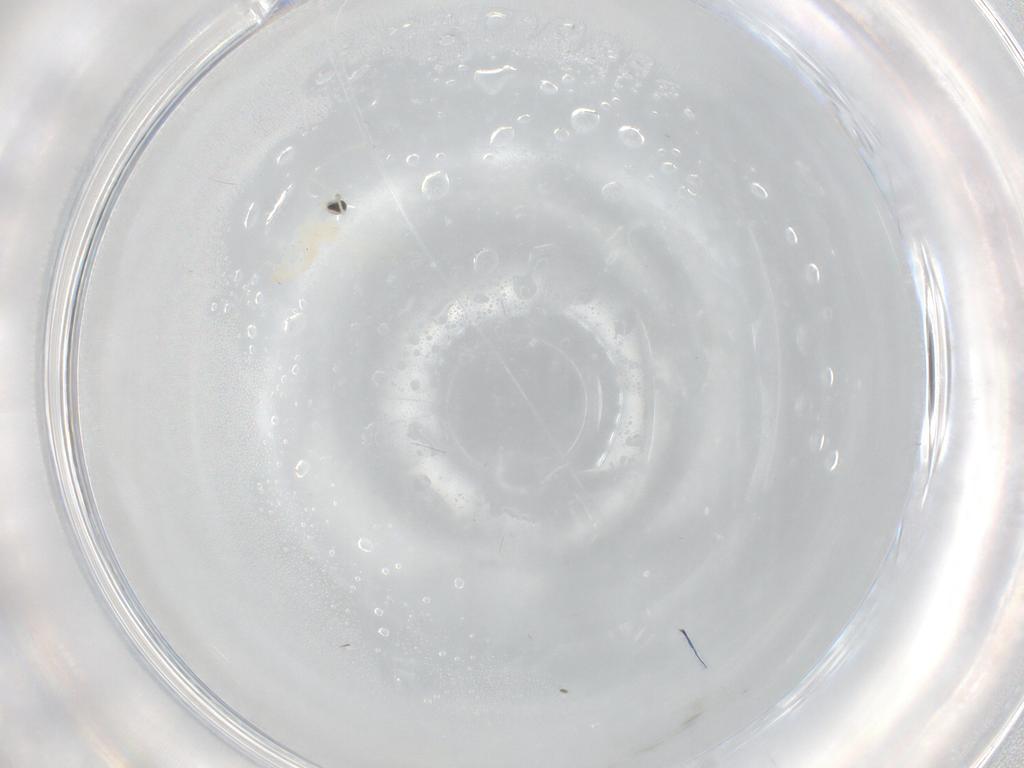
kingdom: Animalia
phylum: Arthropoda
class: Insecta
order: Diptera
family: Cecidomyiidae
